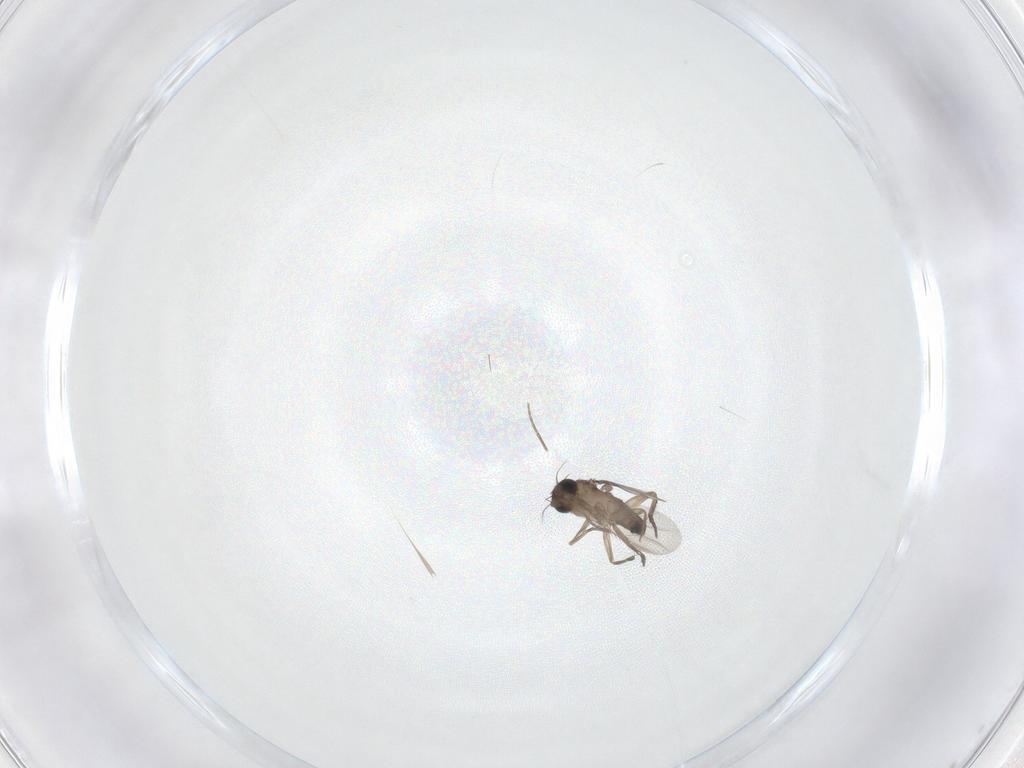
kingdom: Animalia
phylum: Arthropoda
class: Insecta
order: Diptera
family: Phoridae
